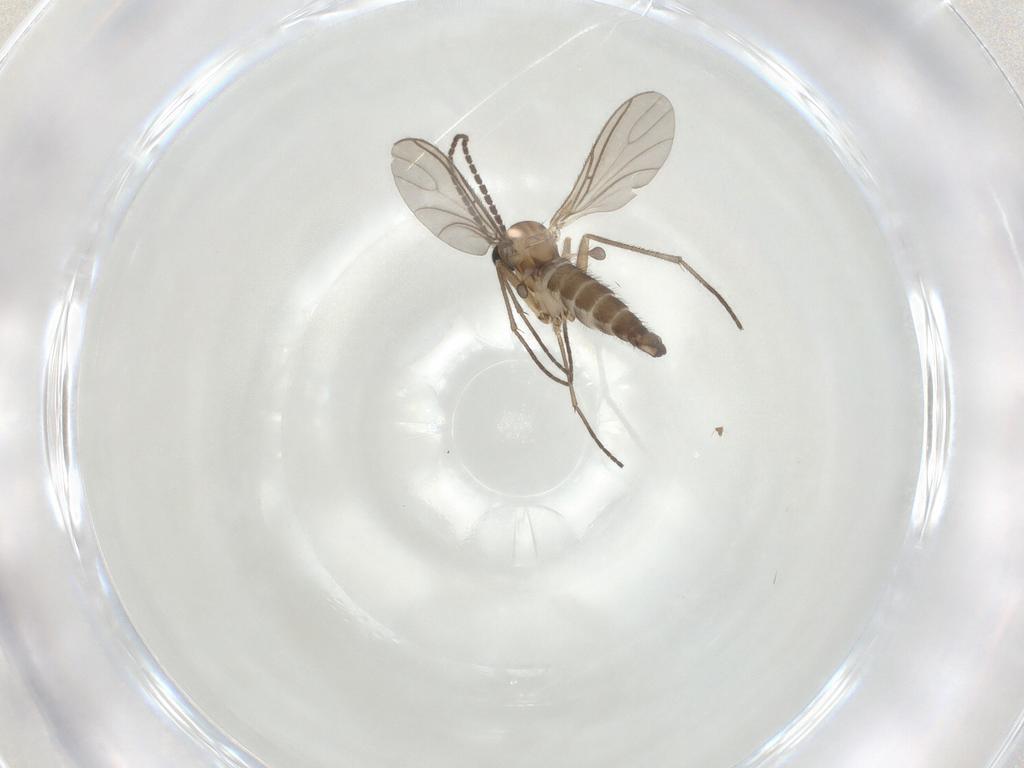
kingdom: Animalia
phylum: Arthropoda
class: Insecta
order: Diptera
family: Sciaridae
